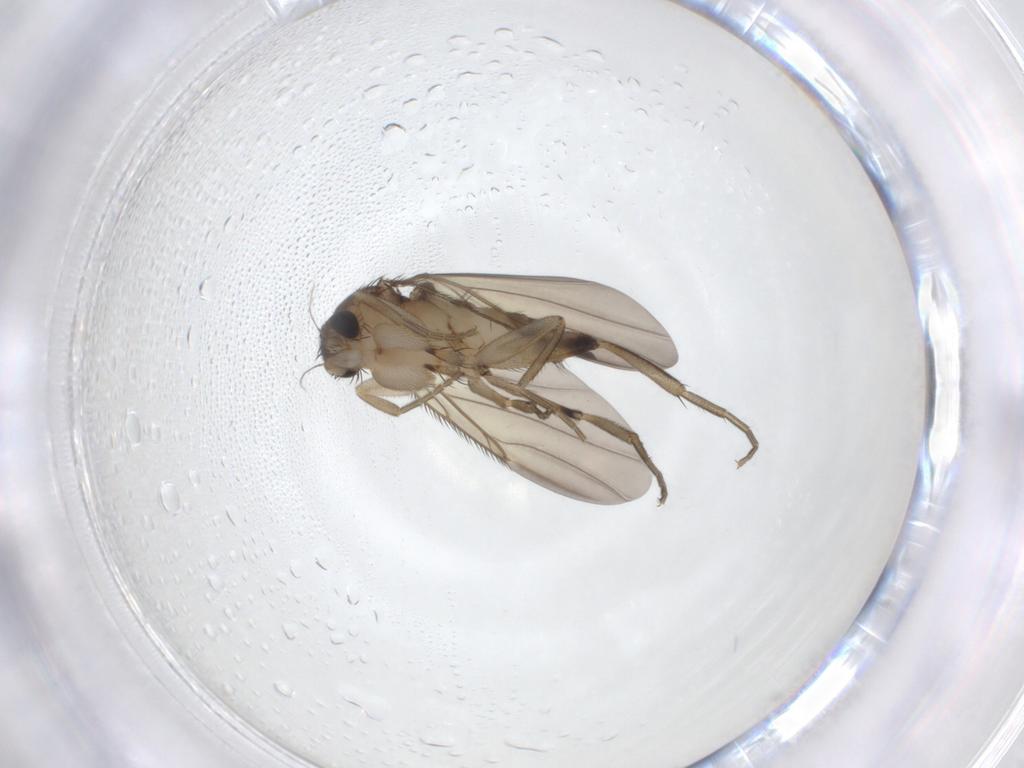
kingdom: Animalia
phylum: Arthropoda
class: Insecta
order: Diptera
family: Phoridae
